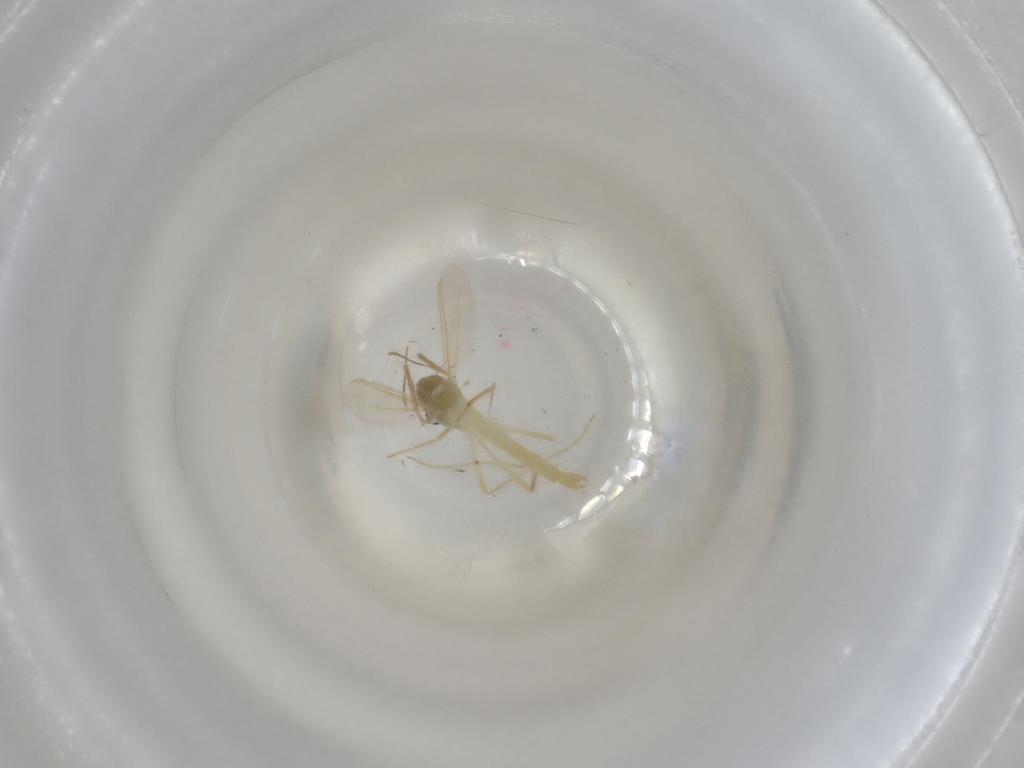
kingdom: Animalia
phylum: Arthropoda
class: Insecta
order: Diptera
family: Chironomidae
